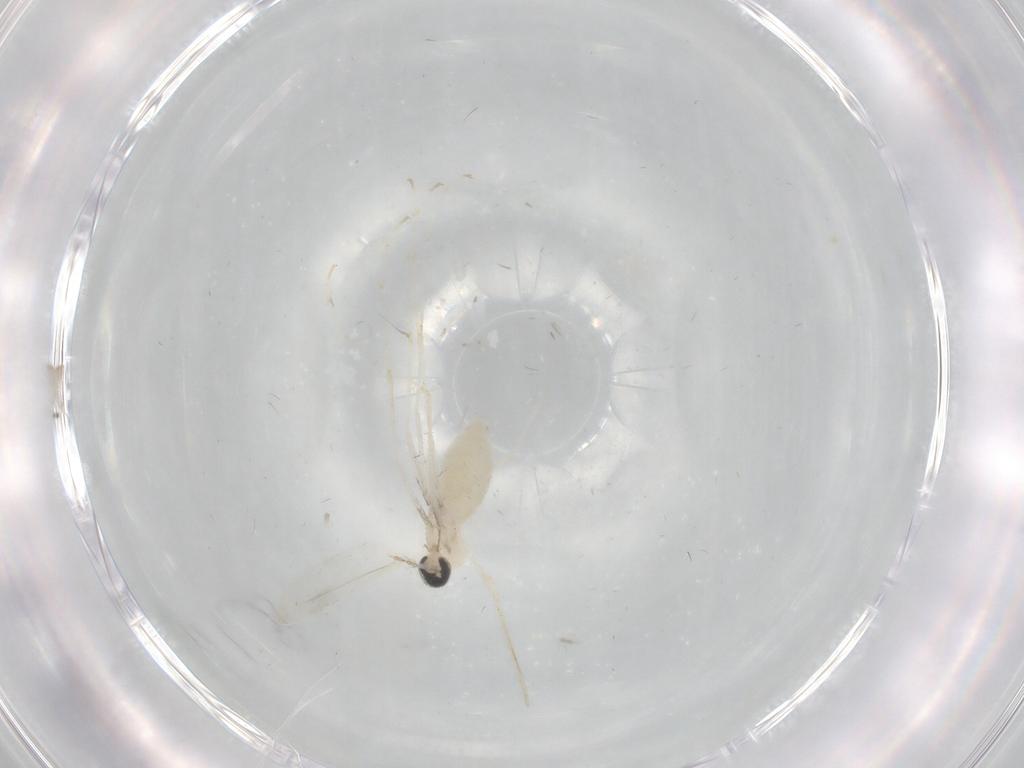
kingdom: Animalia
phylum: Arthropoda
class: Insecta
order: Diptera
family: Cecidomyiidae
